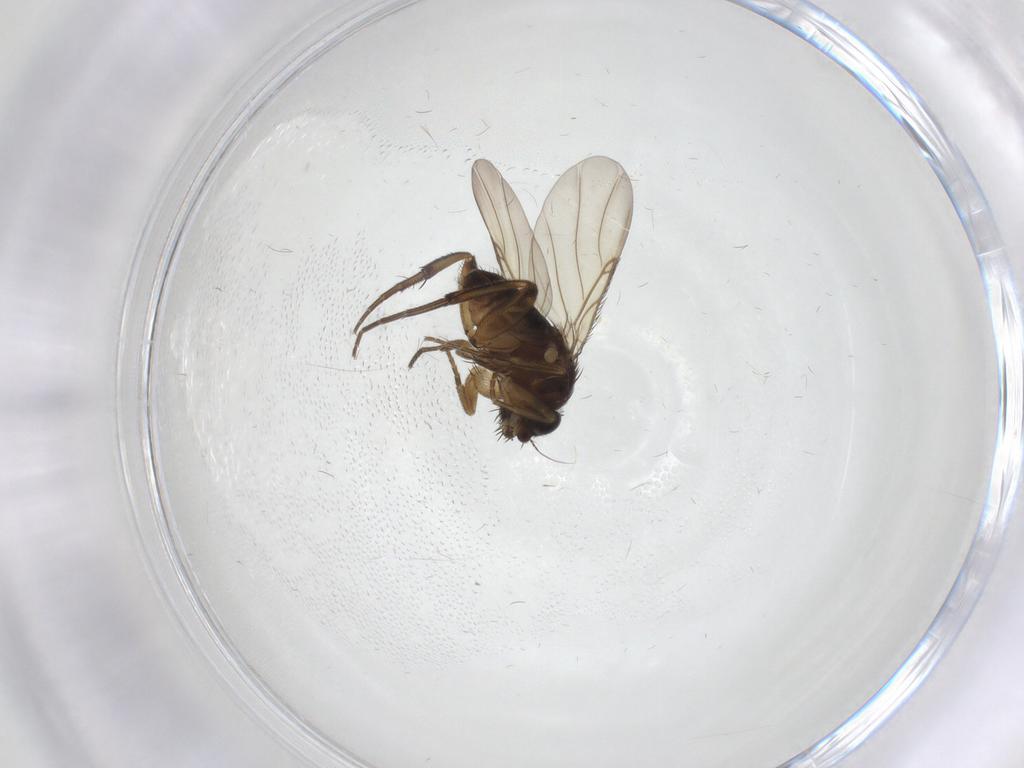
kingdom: Animalia
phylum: Arthropoda
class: Insecta
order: Diptera
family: Phoridae
